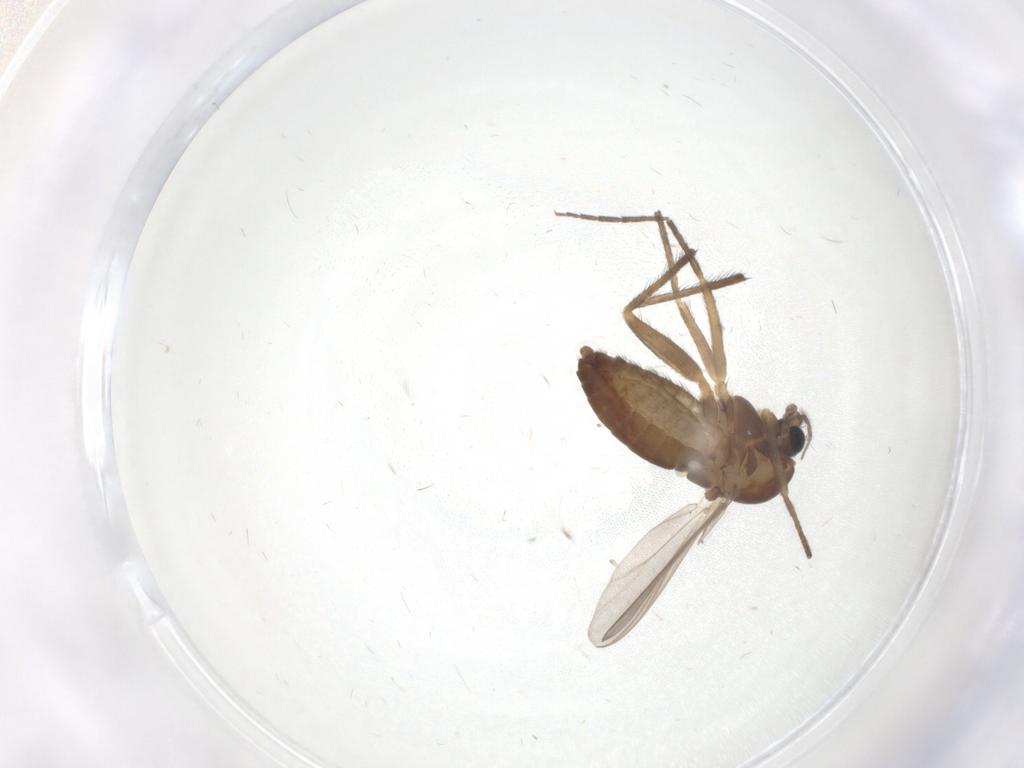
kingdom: Animalia
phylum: Arthropoda
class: Insecta
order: Diptera
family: Chironomidae
